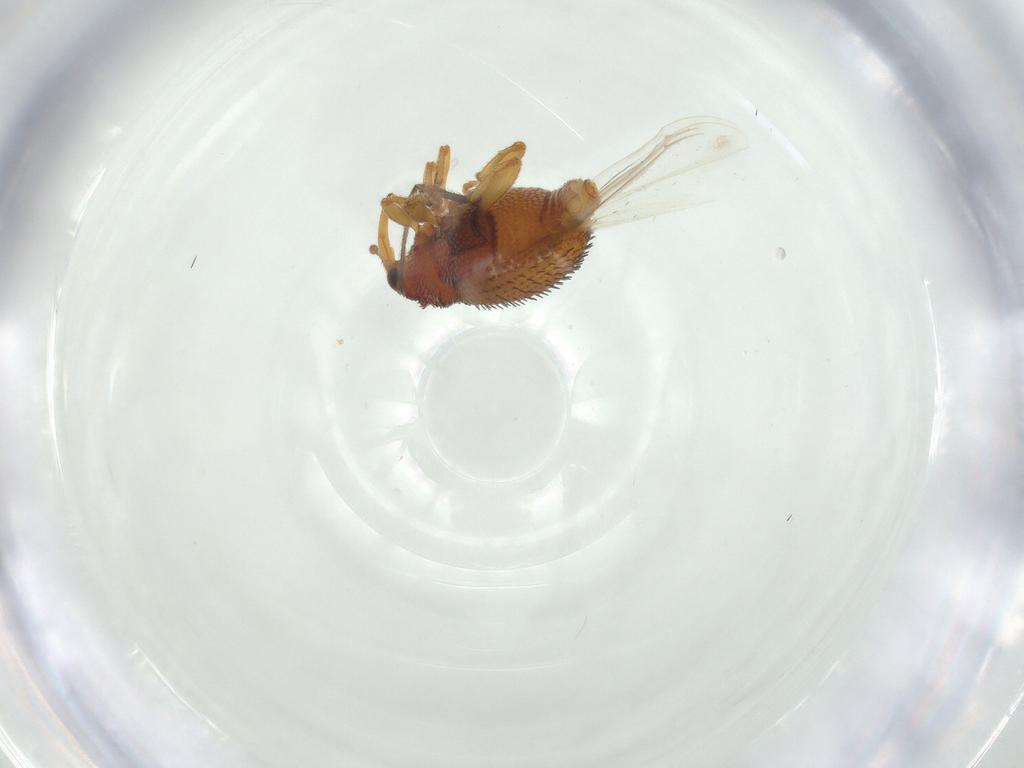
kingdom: Animalia
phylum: Arthropoda
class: Insecta
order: Coleoptera
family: Curculionidae
